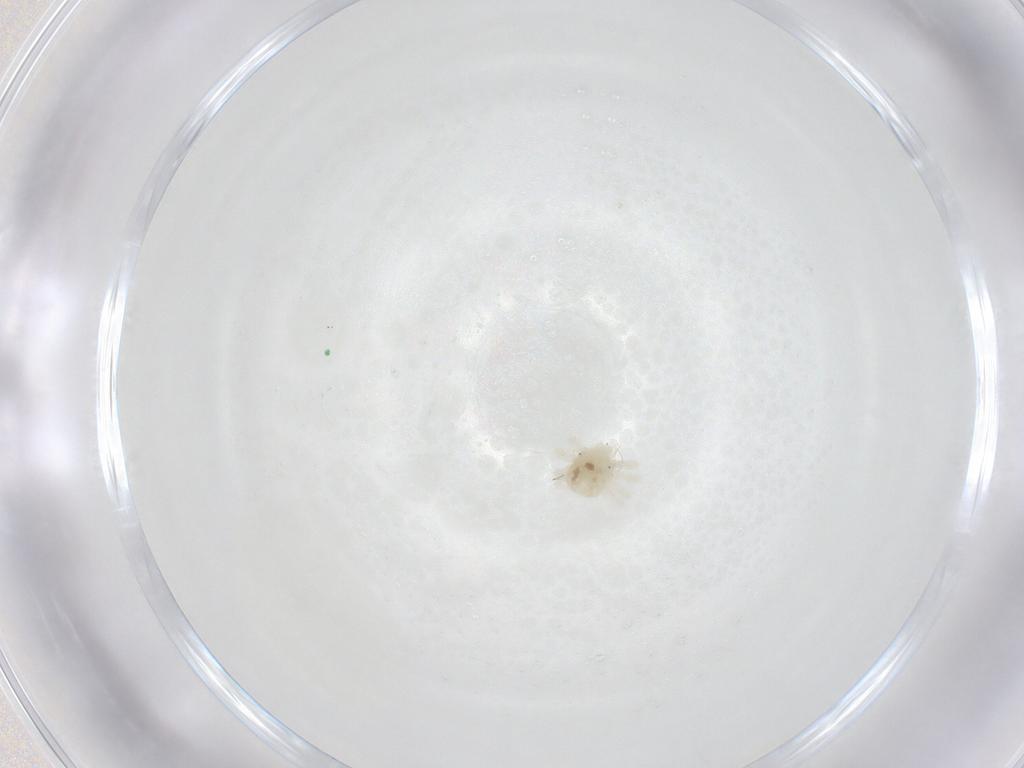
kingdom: Animalia
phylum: Arthropoda
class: Arachnida
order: Trombidiformes
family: Anystidae
